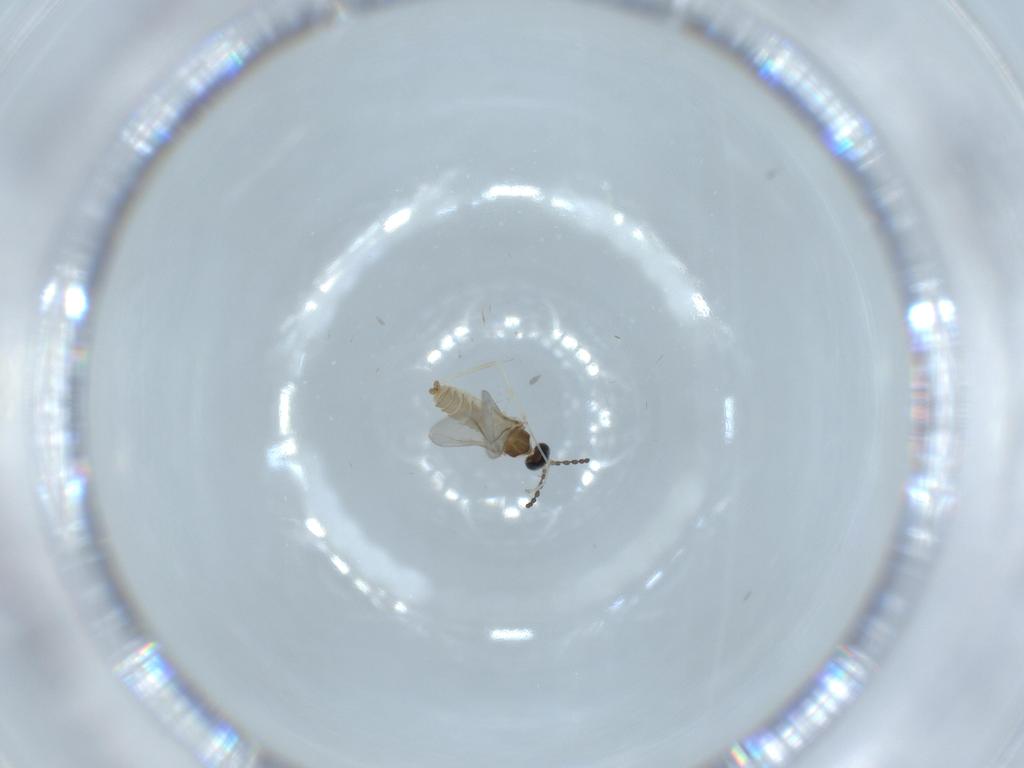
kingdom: Animalia
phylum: Arthropoda
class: Insecta
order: Diptera
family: Cecidomyiidae
